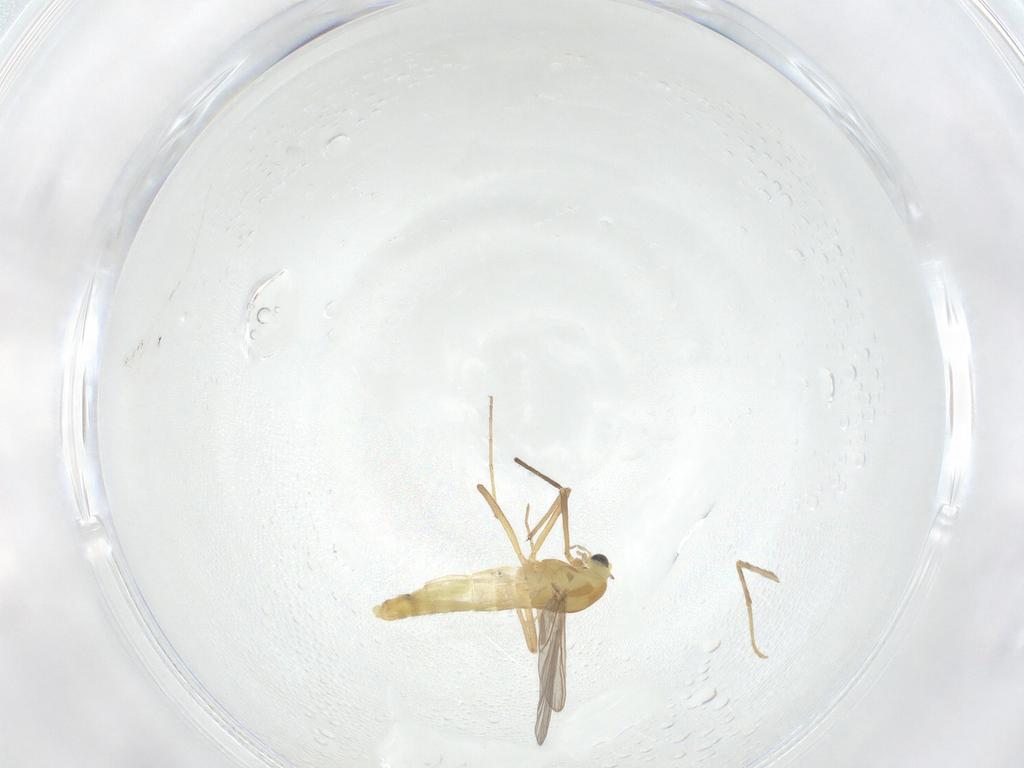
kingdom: Animalia
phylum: Arthropoda
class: Insecta
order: Diptera
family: Chironomidae
